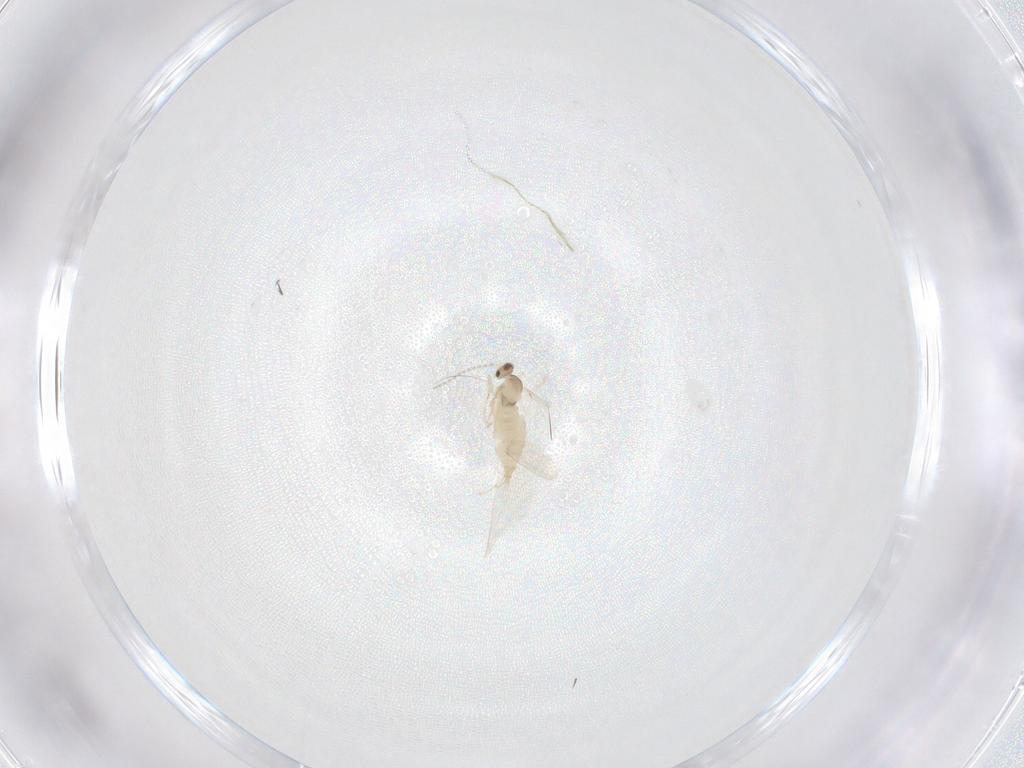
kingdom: Animalia
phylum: Arthropoda
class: Insecta
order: Diptera
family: Cecidomyiidae
